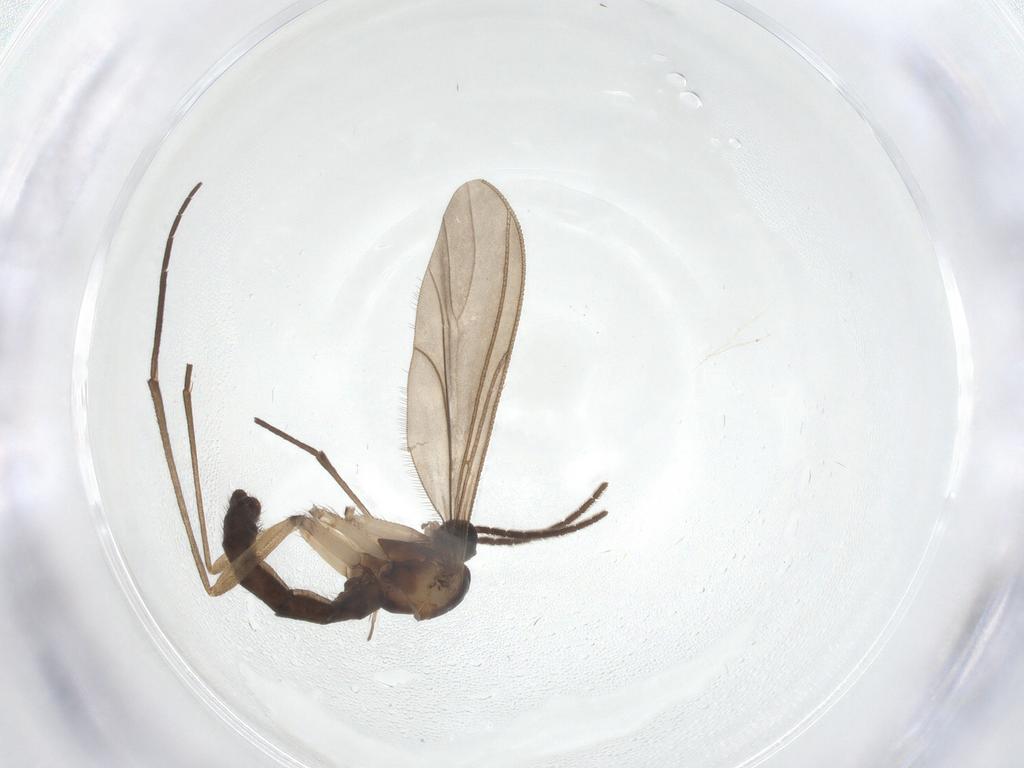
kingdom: Animalia
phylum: Arthropoda
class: Insecta
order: Diptera
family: Sciaridae
